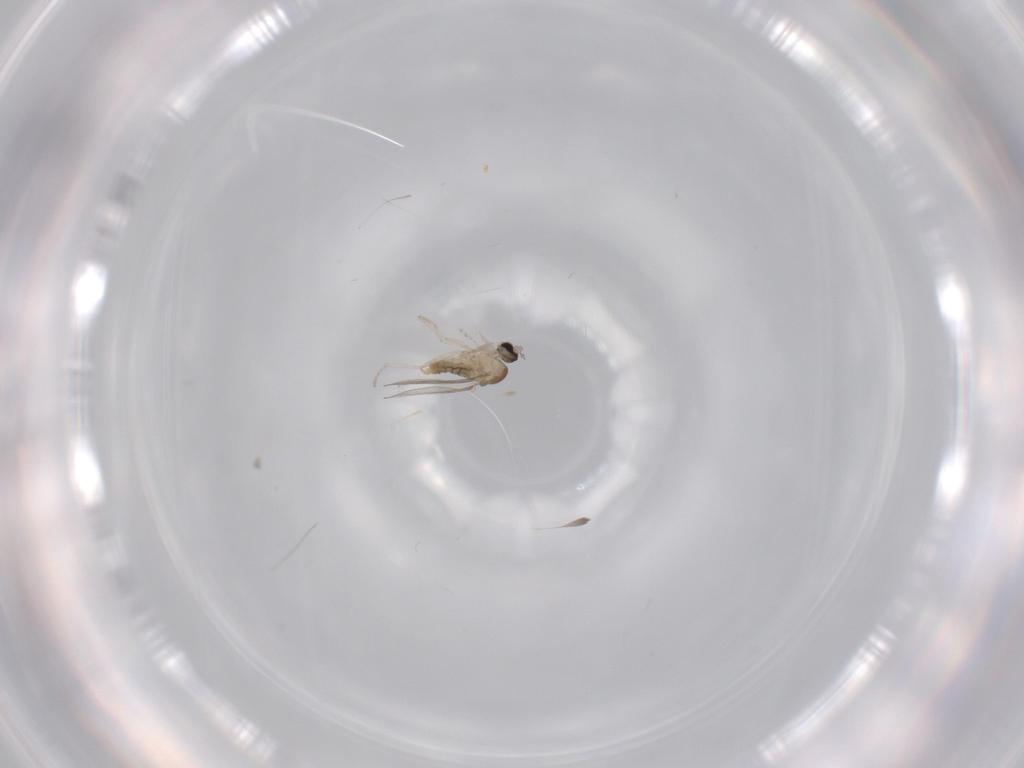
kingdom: Animalia
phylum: Arthropoda
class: Insecta
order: Diptera
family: Cecidomyiidae
